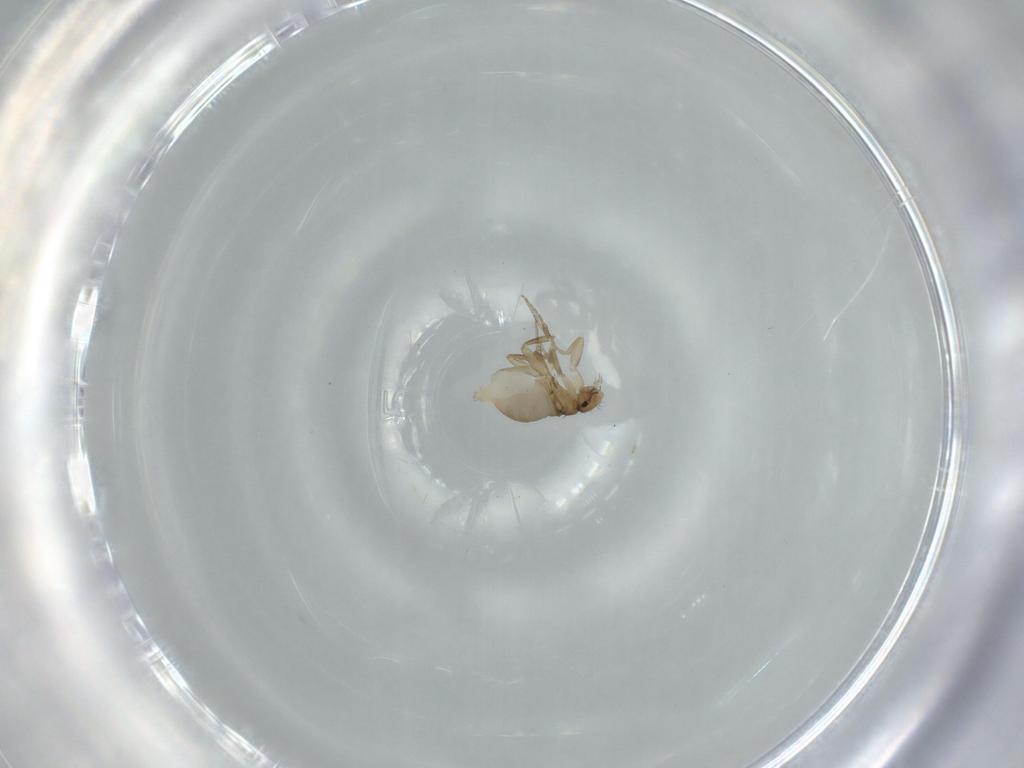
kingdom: Animalia
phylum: Arthropoda
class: Insecta
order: Diptera
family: Phoridae
